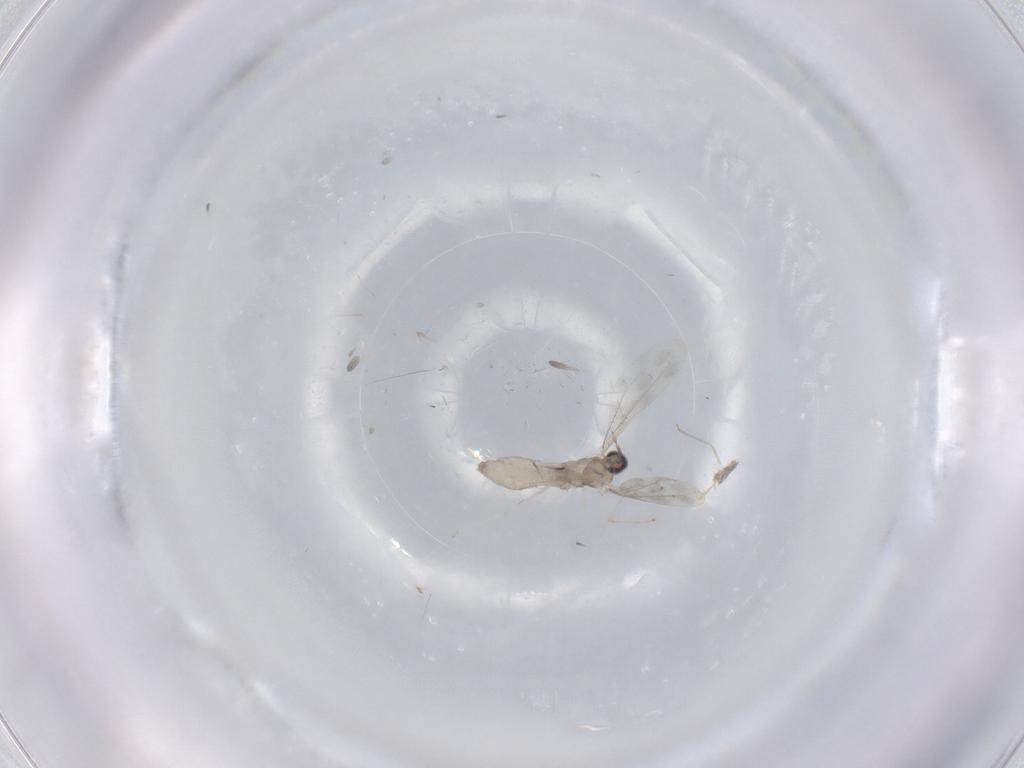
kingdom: Animalia
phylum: Arthropoda
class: Insecta
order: Diptera
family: Cecidomyiidae
